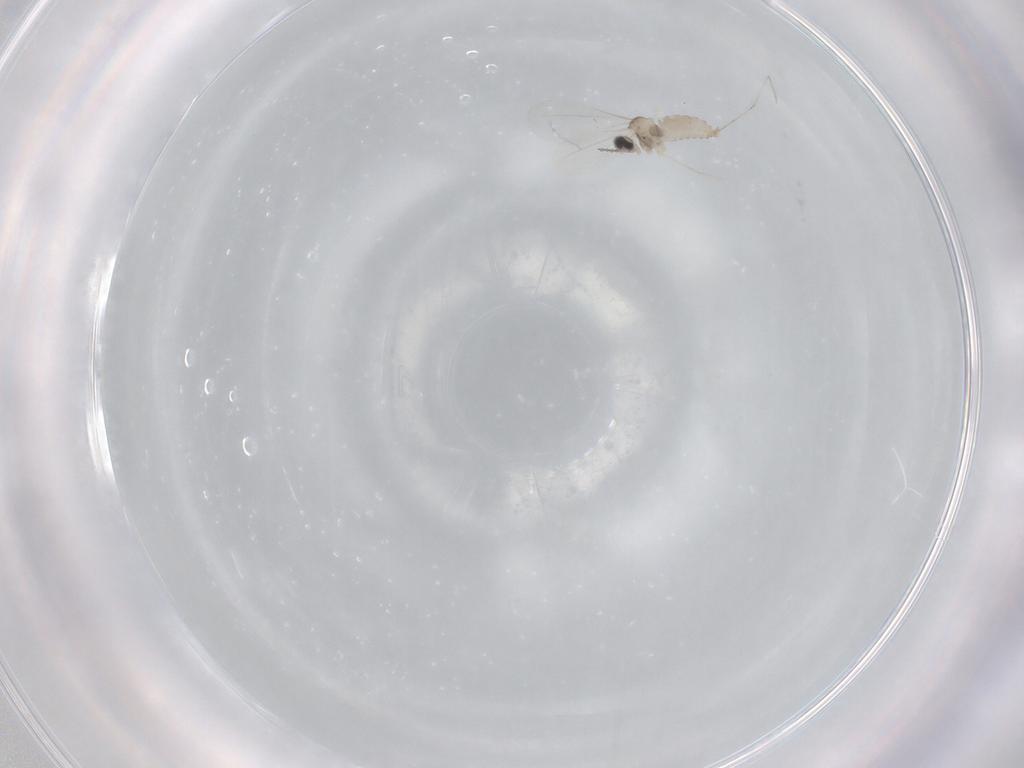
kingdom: Animalia
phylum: Arthropoda
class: Insecta
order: Diptera
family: Cecidomyiidae
